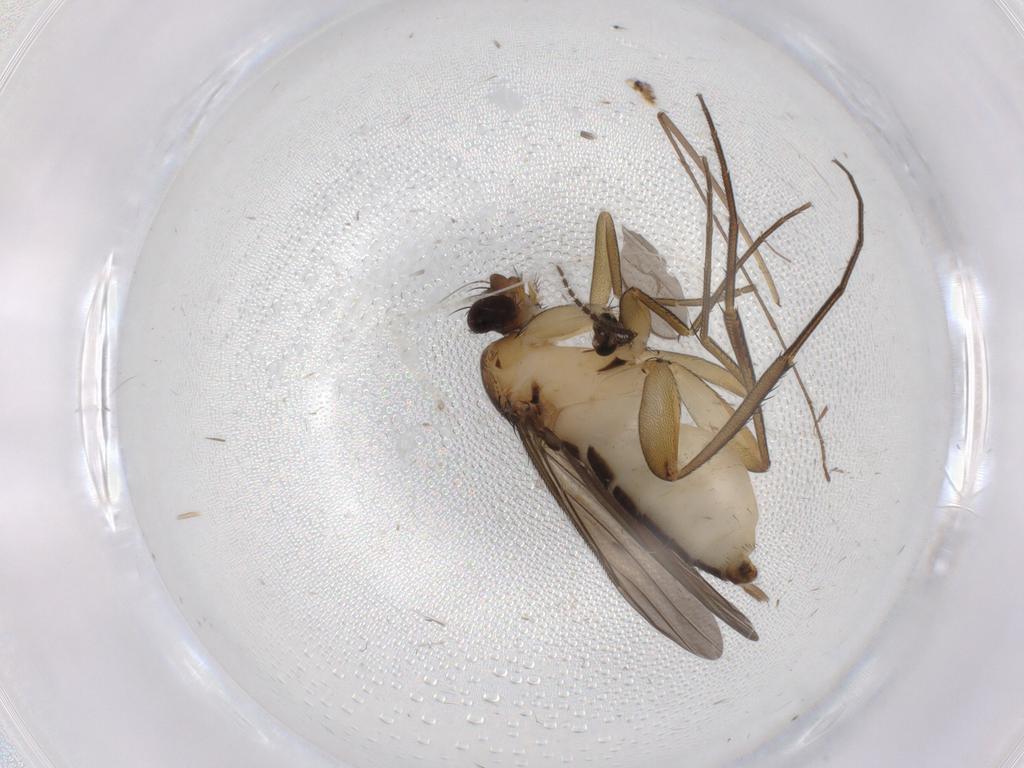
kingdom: Animalia
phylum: Arthropoda
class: Insecta
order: Diptera
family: Sciaridae
